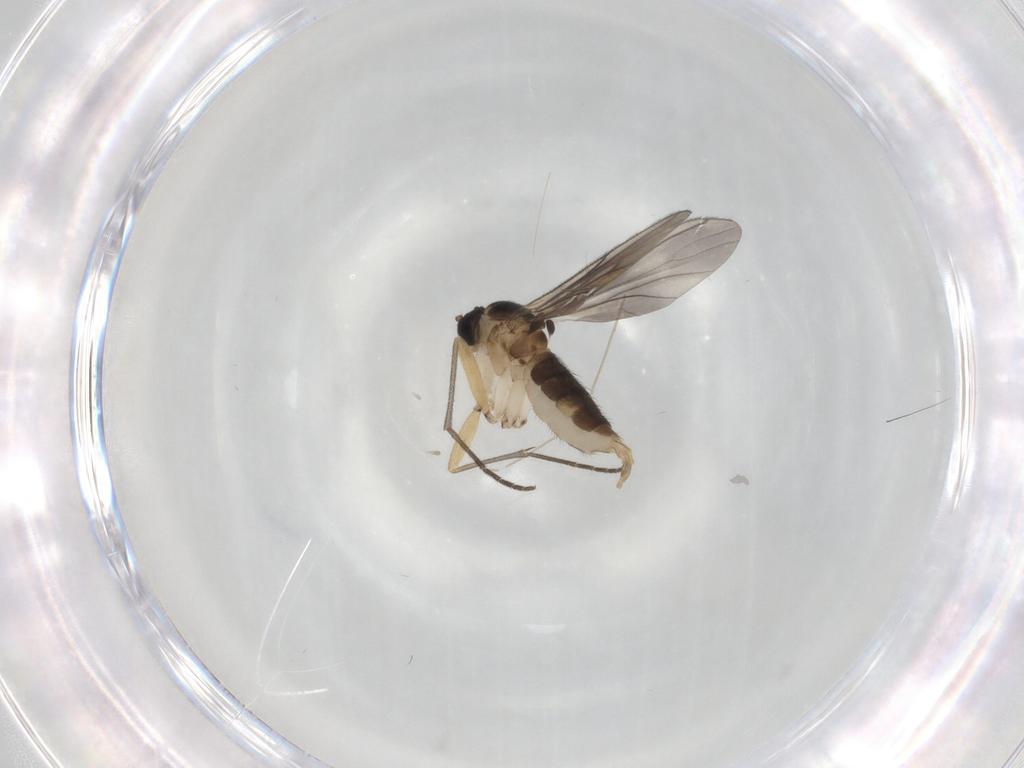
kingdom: Animalia
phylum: Arthropoda
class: Insecta
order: Diptera
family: Sciaridae
